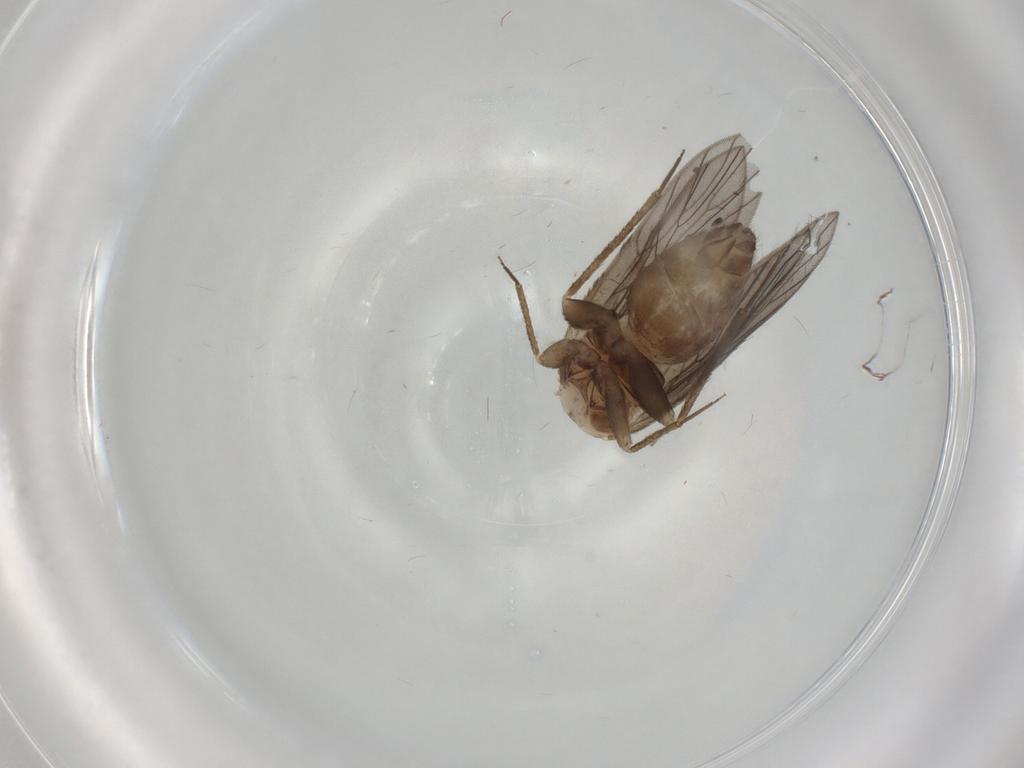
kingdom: Animalia
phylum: Arthropoda
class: Insecta
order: Psocodea
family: Lepidopsocidae
